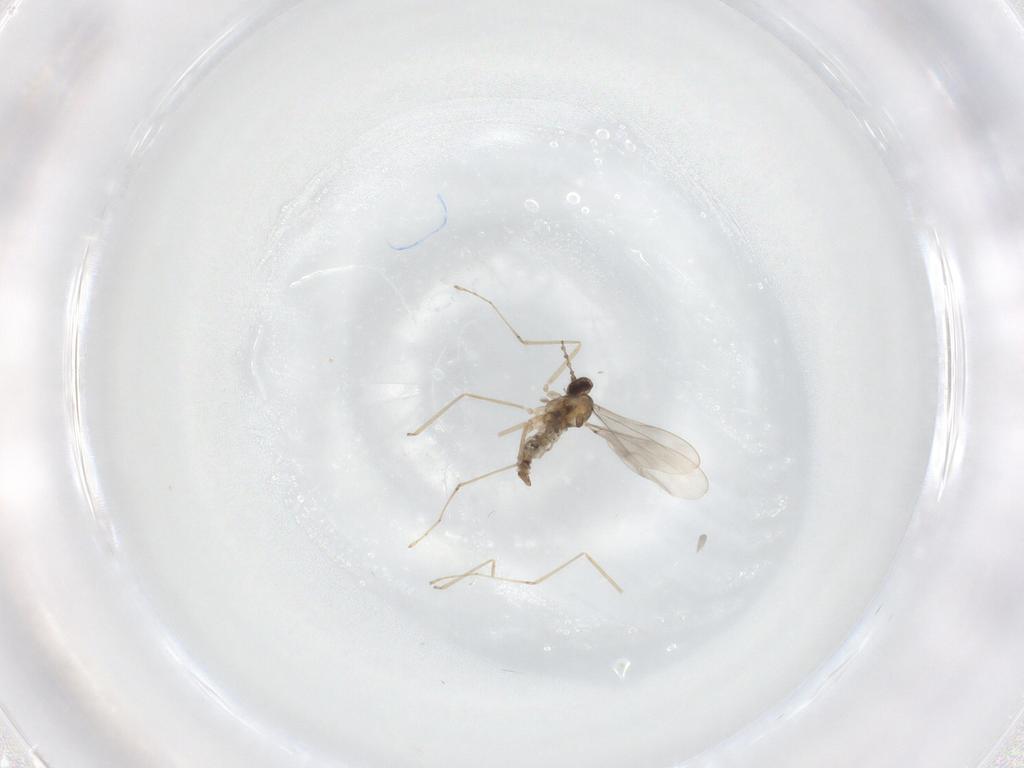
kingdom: Animalia
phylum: Arthropoda
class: Insecta
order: Diptera
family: Cecidomyiidae
